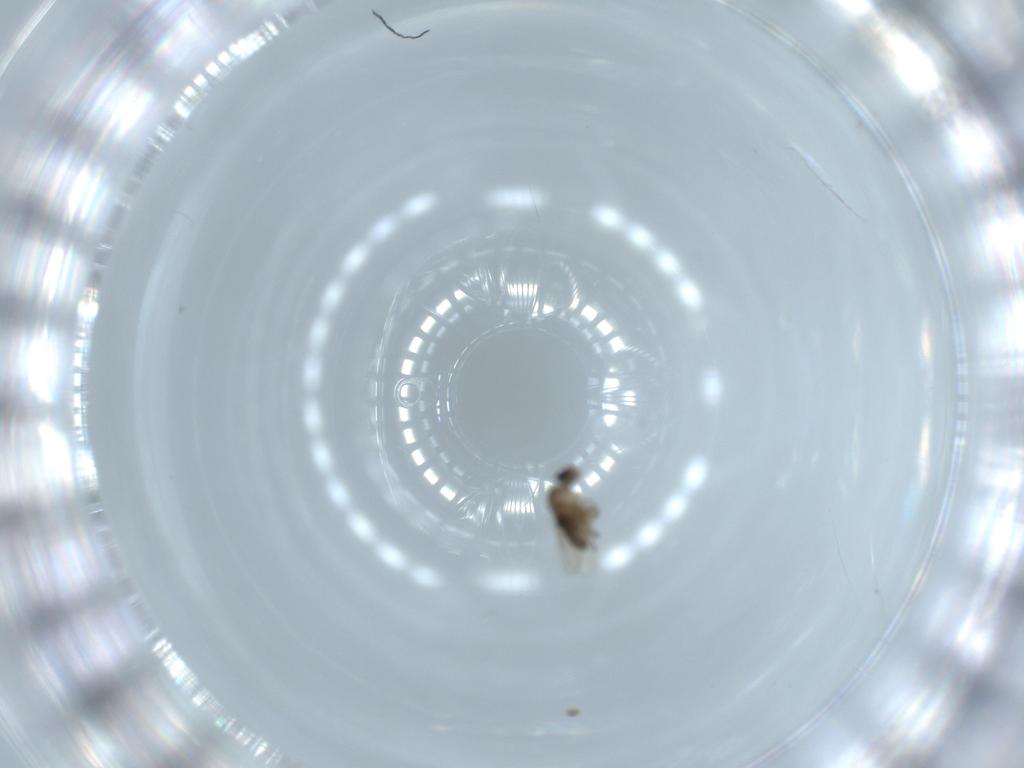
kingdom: Animalia
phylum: Arthropoda
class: Insecta
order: Diptera
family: Phoridae
